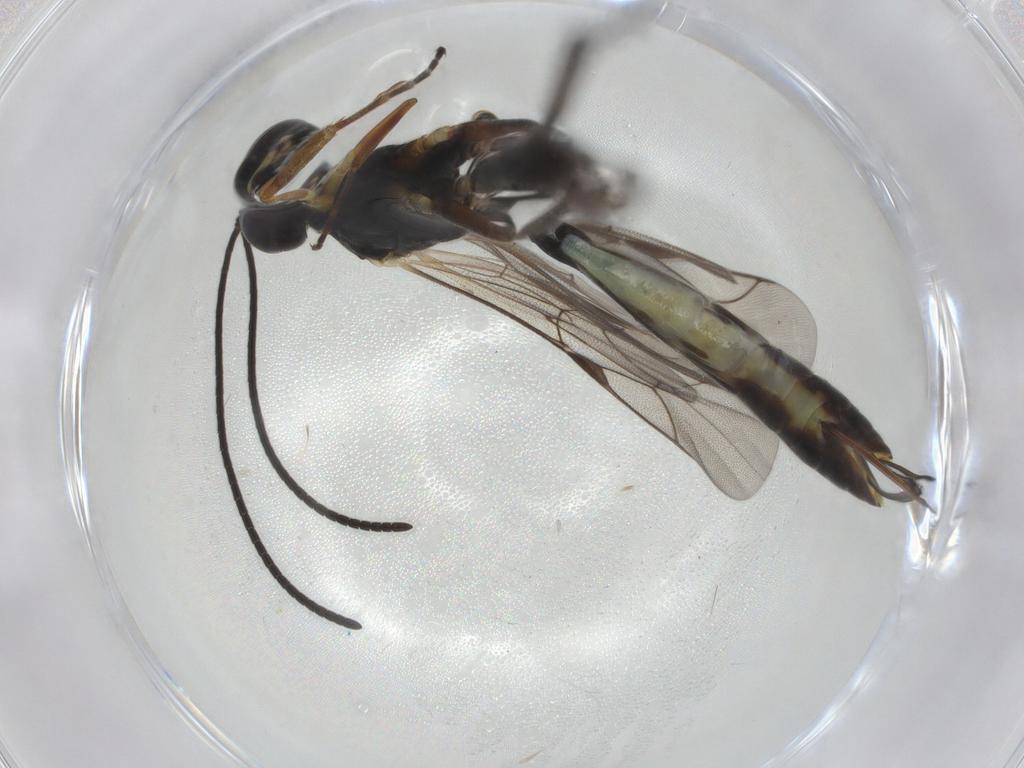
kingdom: Animalia
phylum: Arthropoda
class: Insecta
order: Hymenoptera
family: Ichneumonidae
